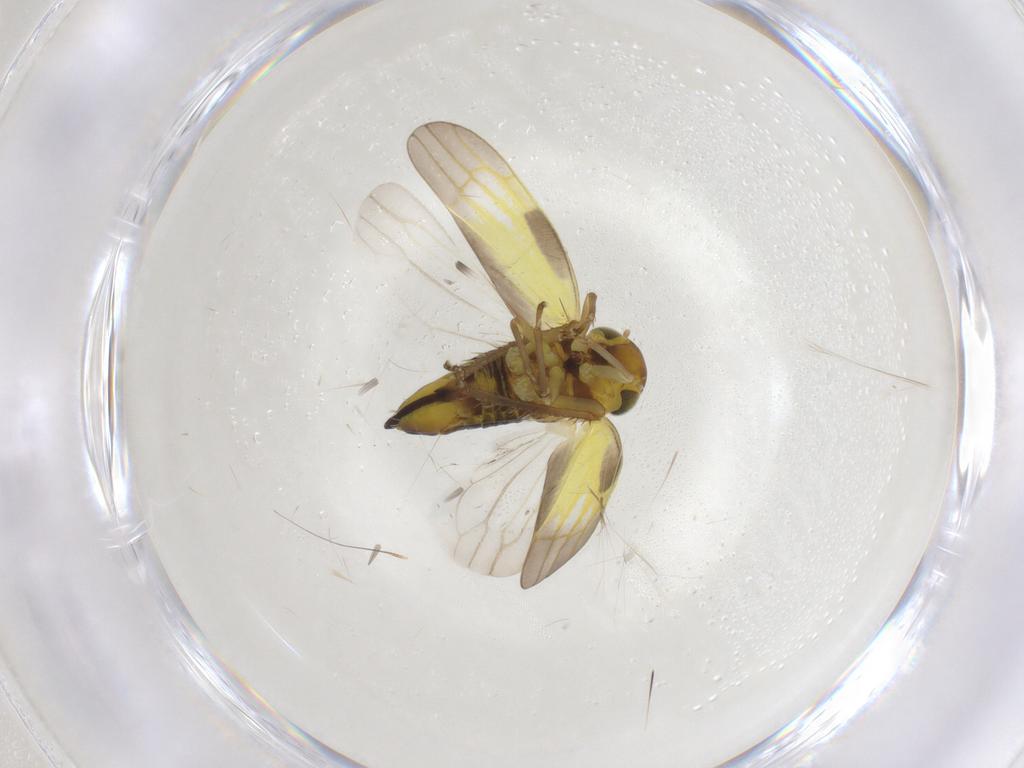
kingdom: Animalia
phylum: Arthropoda
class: Insecta
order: Hemiptera
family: Cicadellidae
